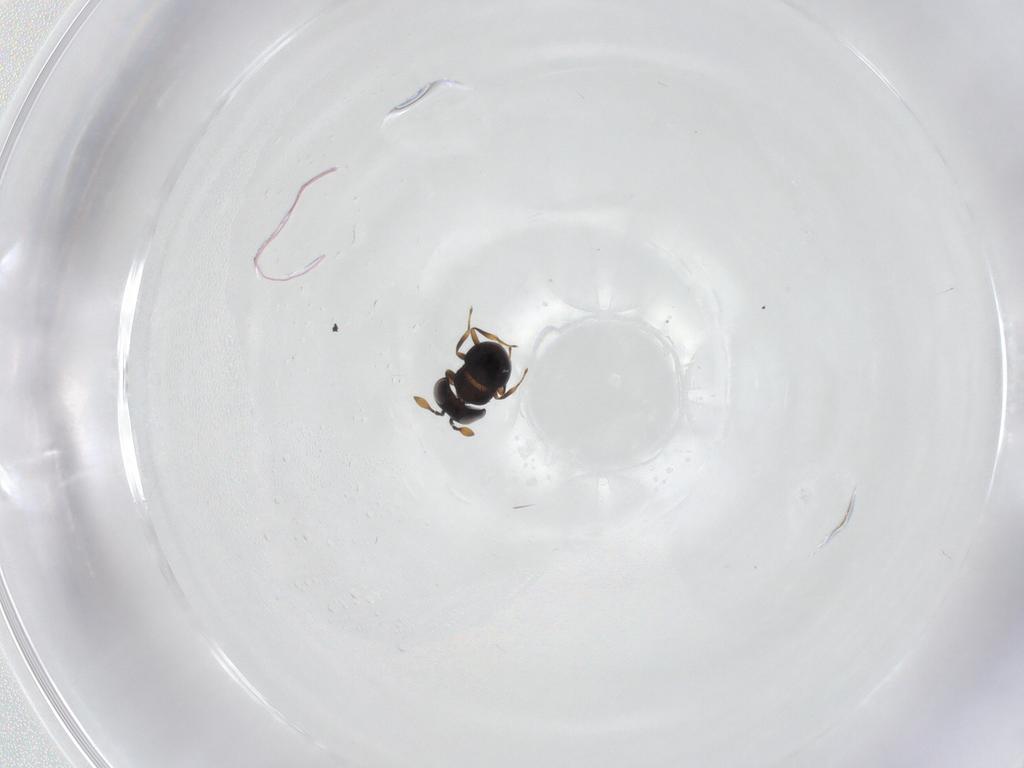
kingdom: Animalia
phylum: Arthropoda
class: Insecta
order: Hymenoptera
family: Scelionidae
